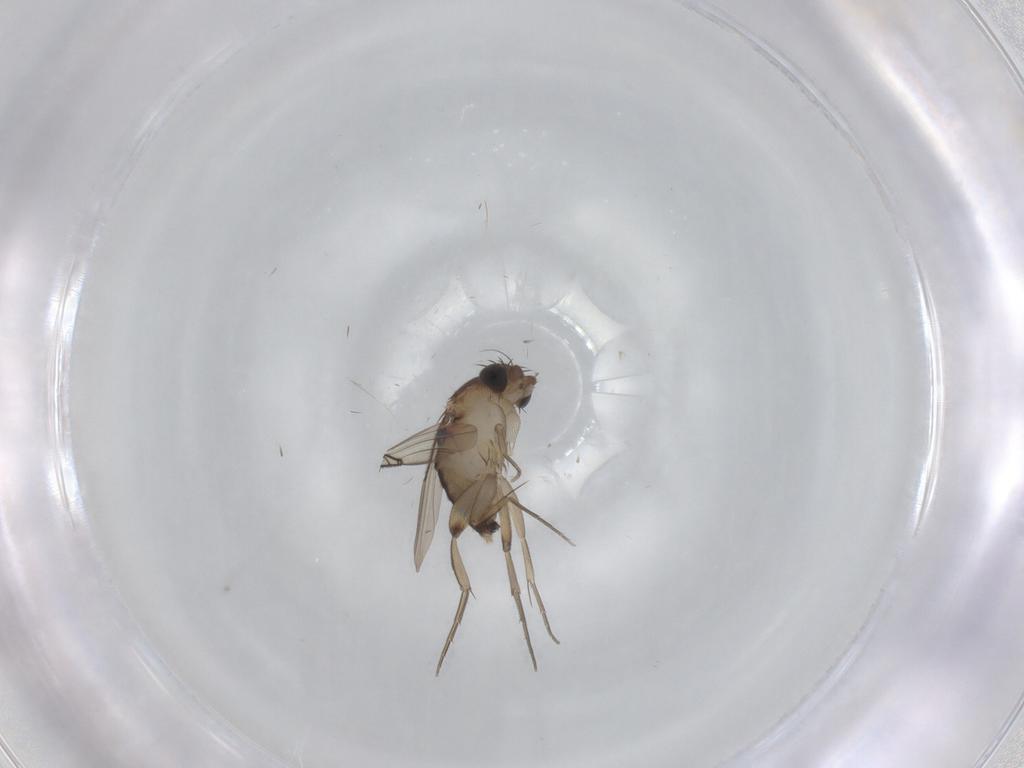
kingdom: Animalia
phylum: Arthropoda
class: Insecta
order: Diptera
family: Phoridae
